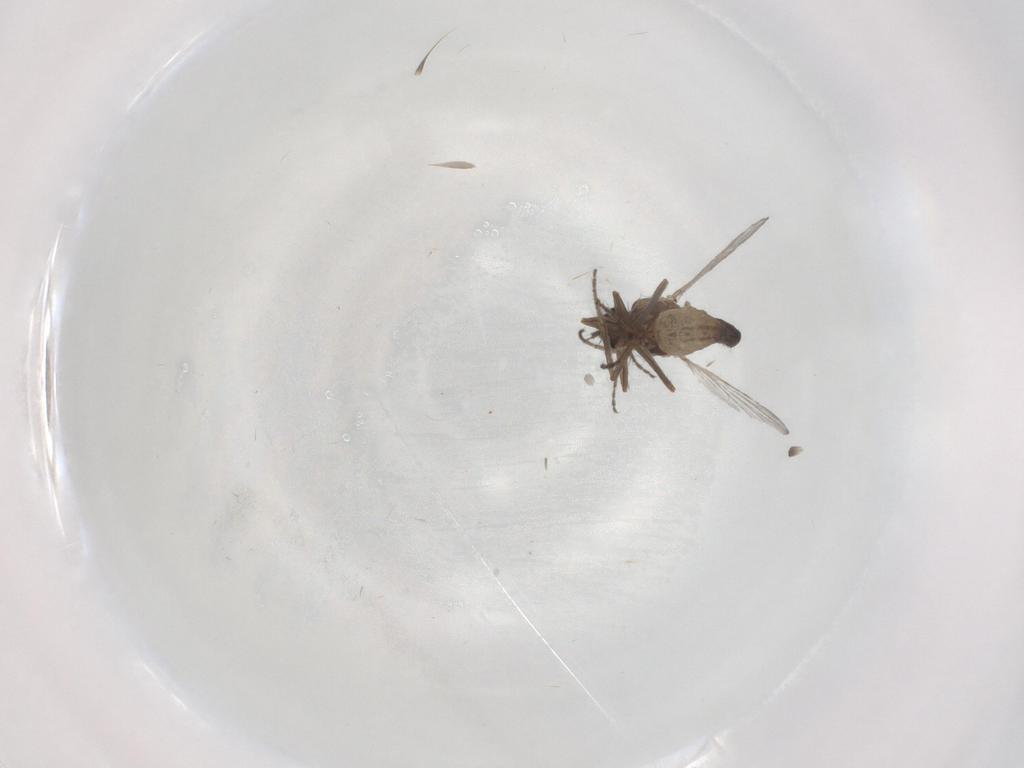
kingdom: Animalia
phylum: Arthropoda
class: Insecta
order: Diptera
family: Ceratopogonidae
